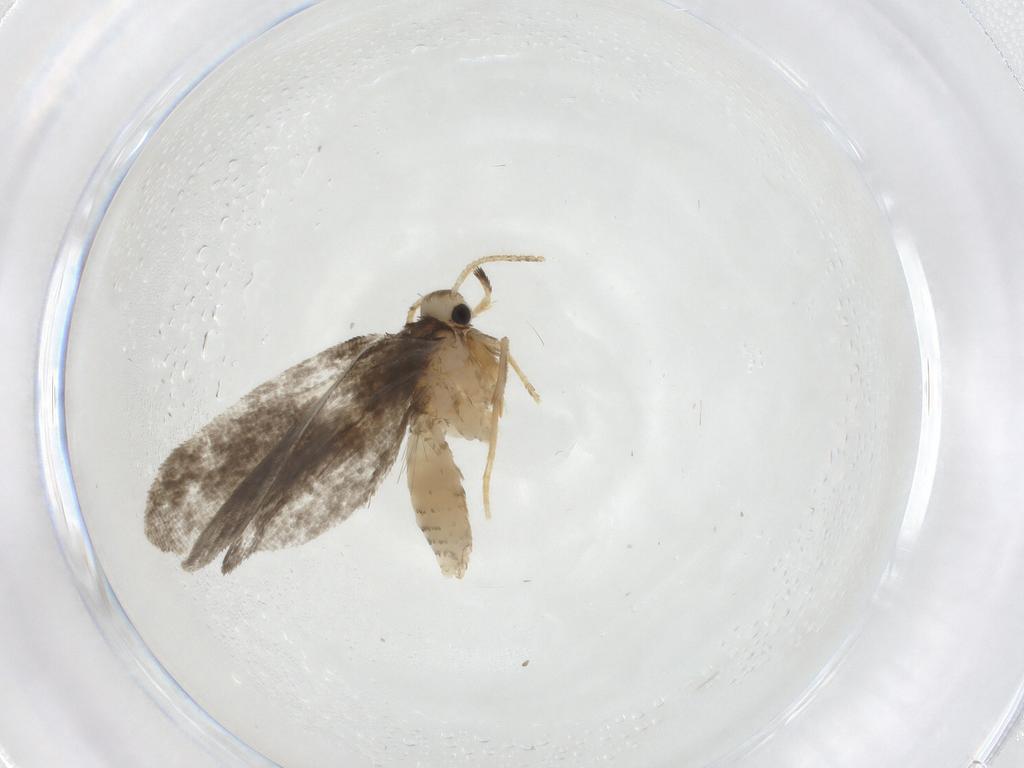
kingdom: Animalia
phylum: Arthropoda
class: Insecta
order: Lepidoptera
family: Psychidae
